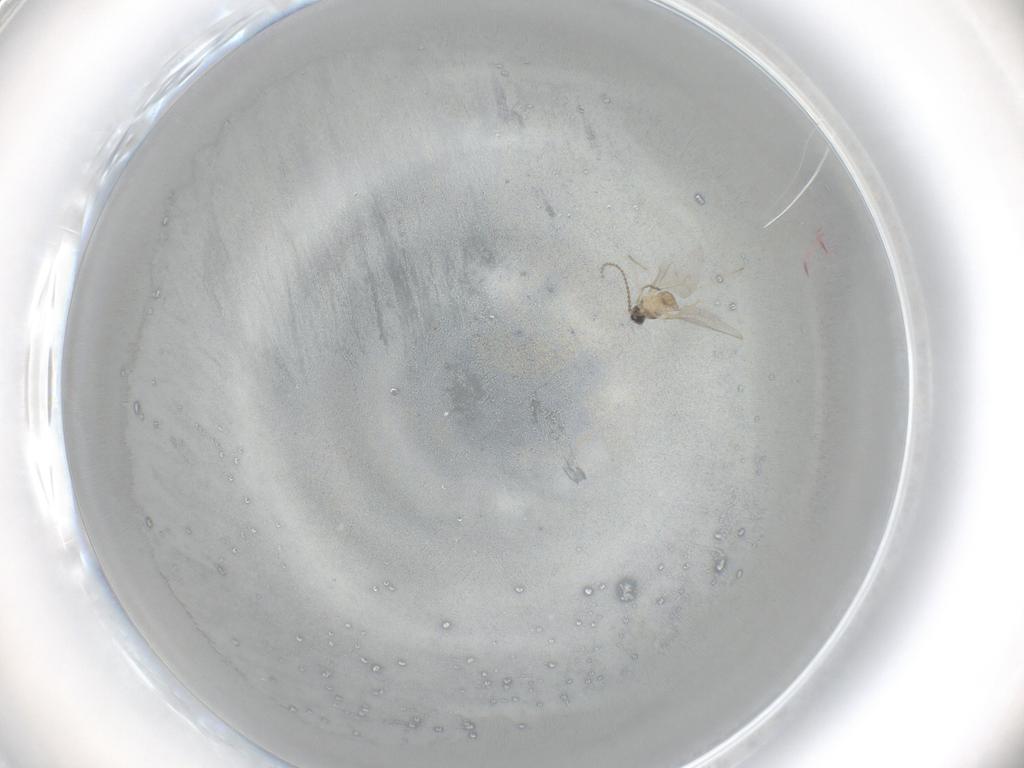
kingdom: Animalia
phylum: Arthropoda
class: Insecta
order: Diptera
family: Cecidomyiidae
